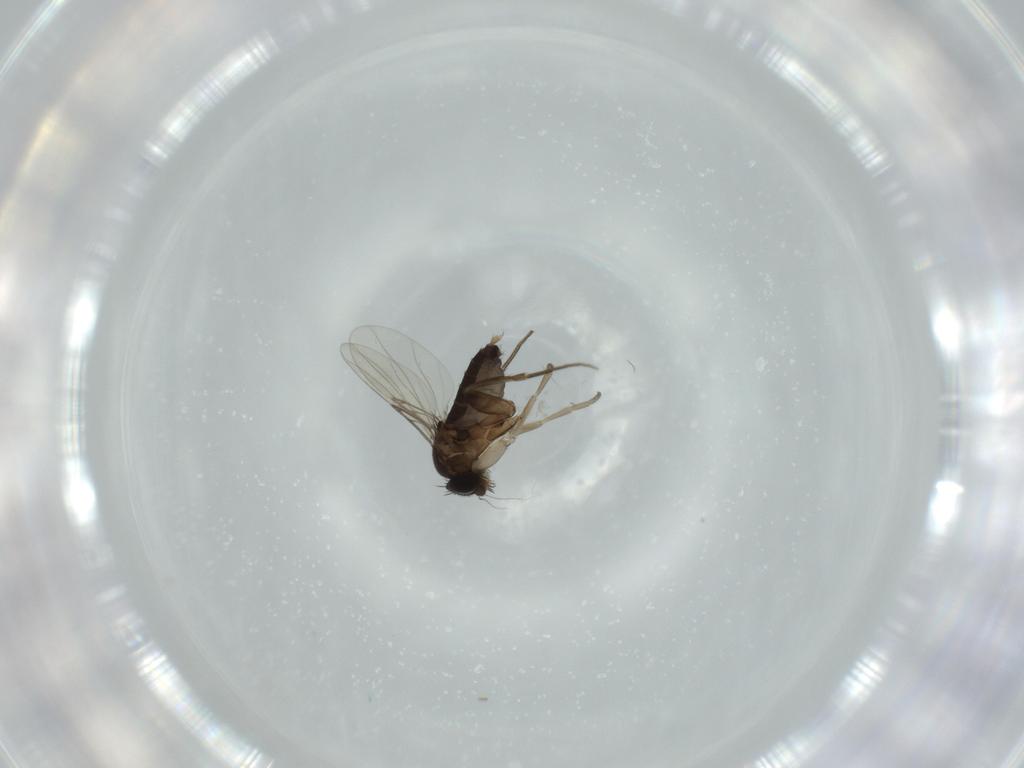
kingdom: Animalia
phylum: Arthropoda
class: Insecta
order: Diptera
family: Phoridae
